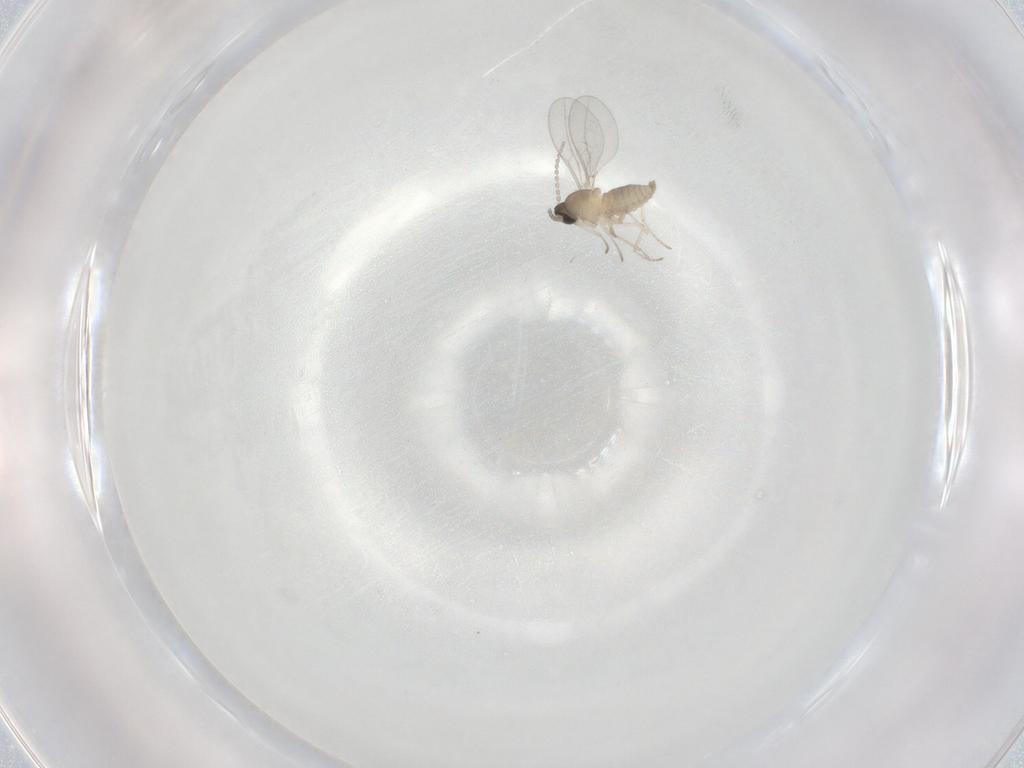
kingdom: Animalia
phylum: Arthropoda
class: Insecta
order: Diptera
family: Cecidomyiidae
